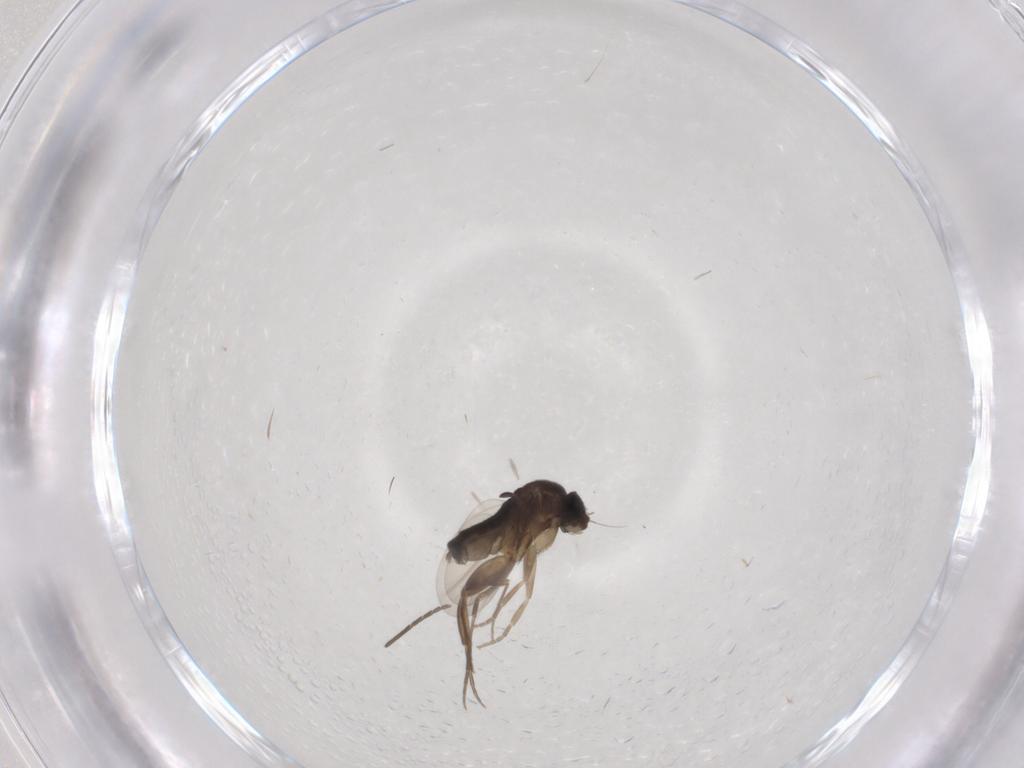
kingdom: Animalia
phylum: Arthropoda
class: Insecta
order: Diptera
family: Phoridae
